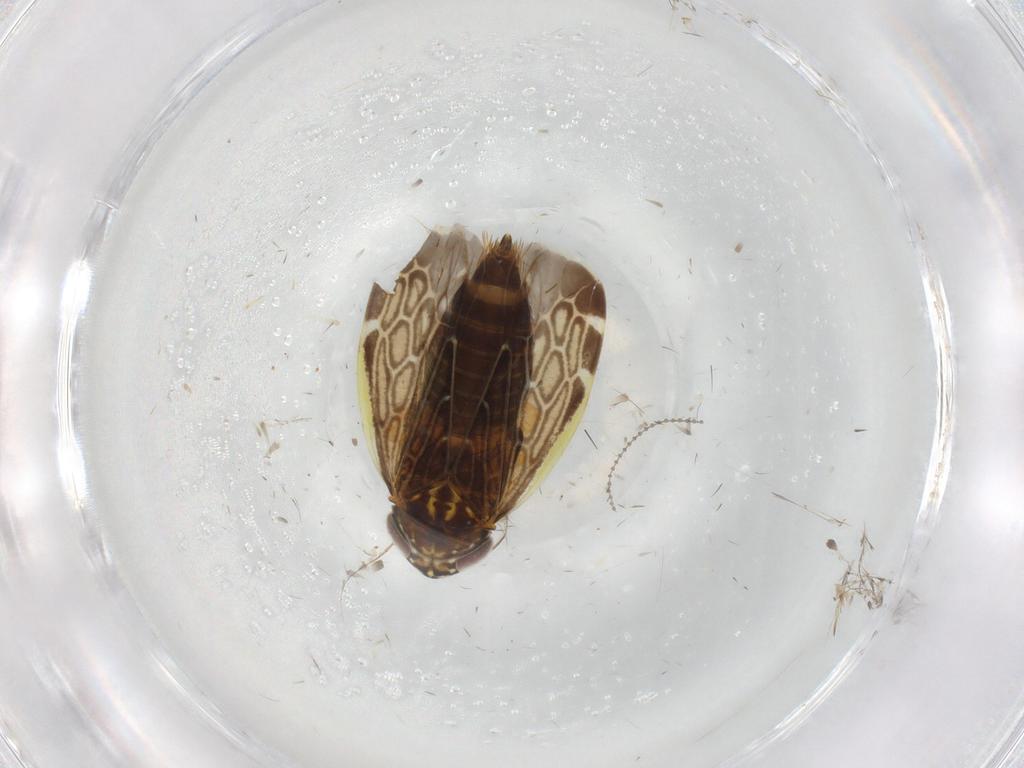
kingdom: Animalia
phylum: Arthropoda
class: Insecta
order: Hemiptera
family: Cicadellidae
